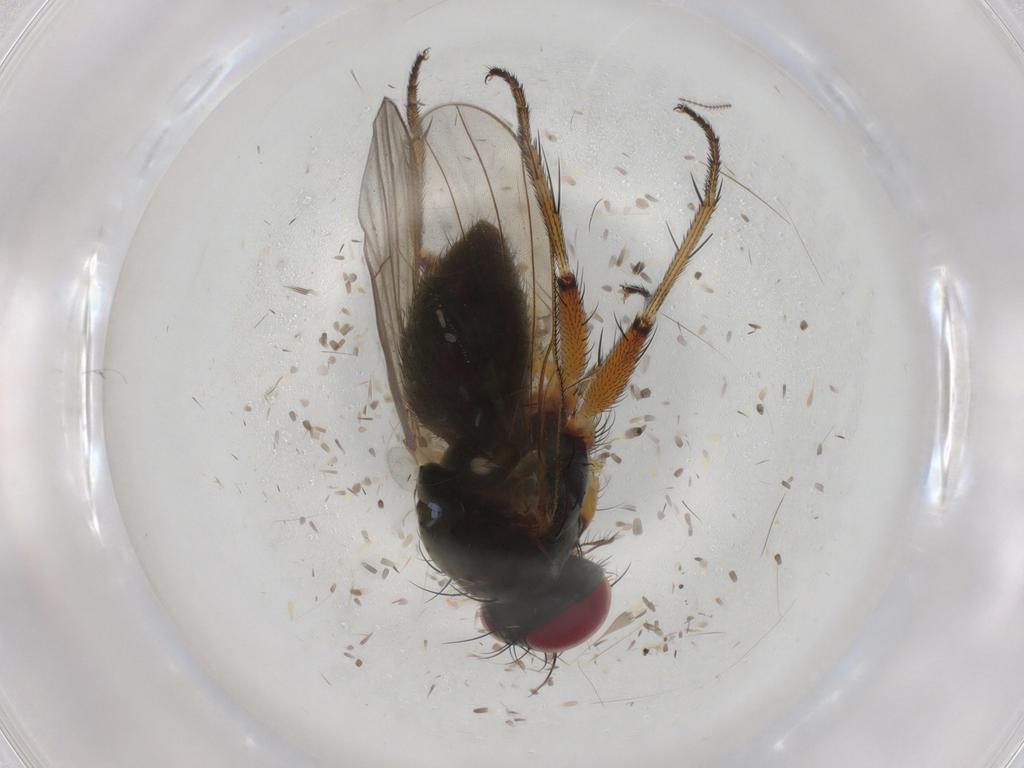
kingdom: Animalia
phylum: Arthropoda
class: Insecta
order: Diptera
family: Muscidae
